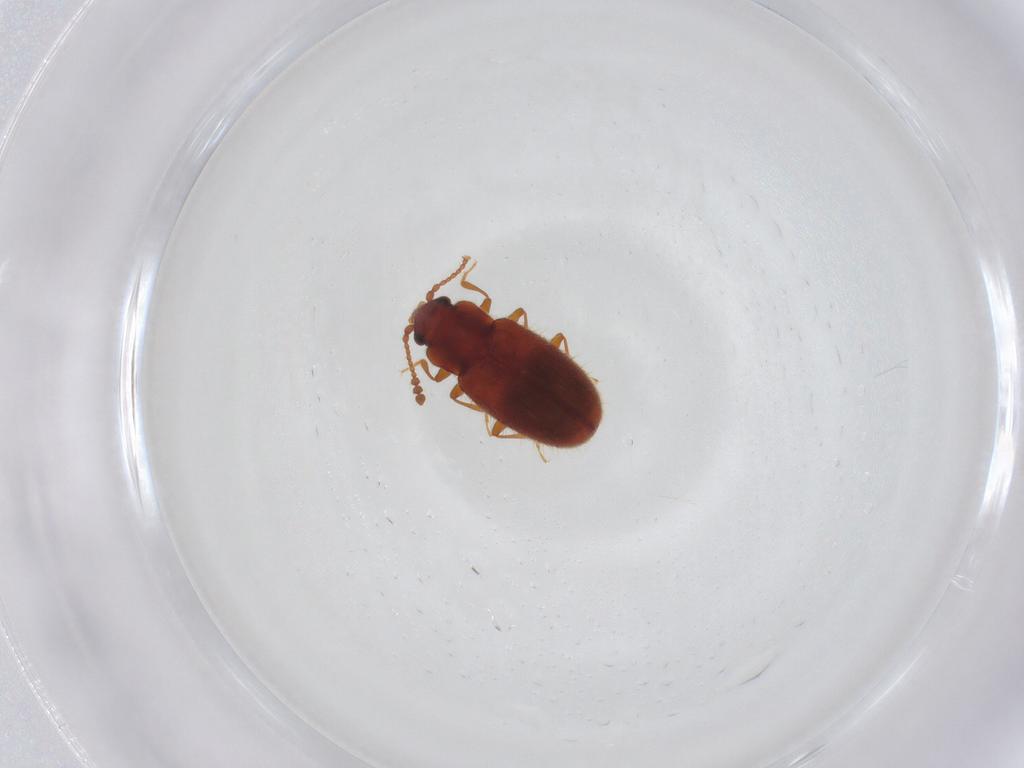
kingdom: Animalia
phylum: Arthropoda
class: Insecta
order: Coleoptera
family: Cryptophagidae
